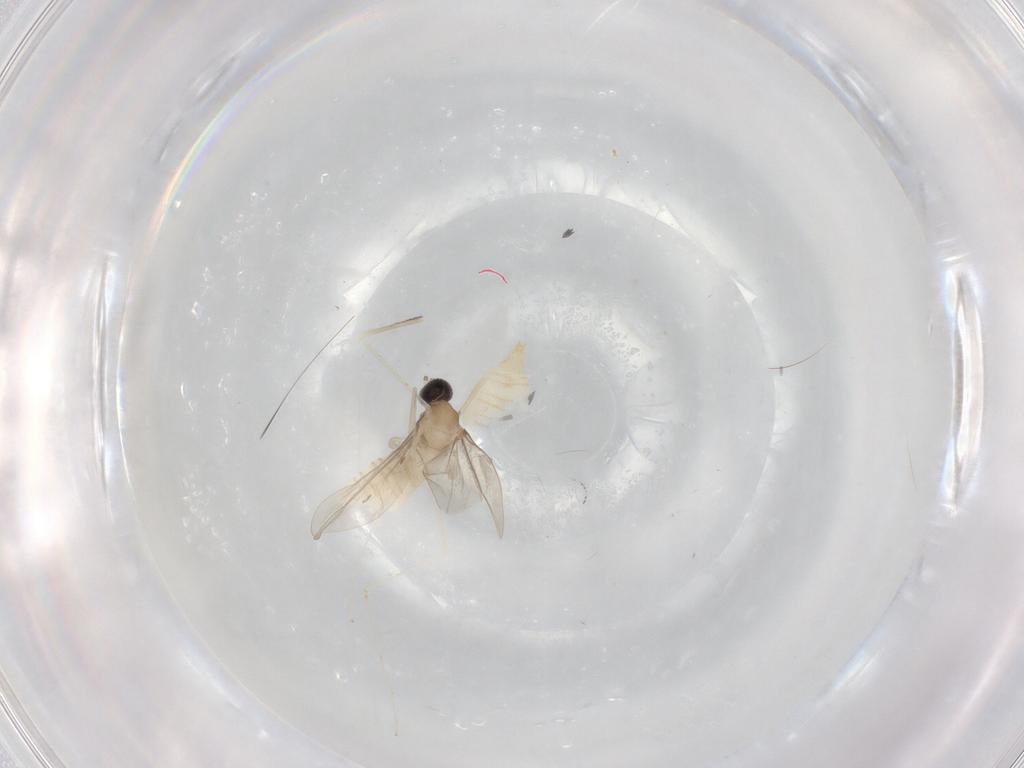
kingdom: Animalia
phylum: Arthropoda
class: Insecta
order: Diptera
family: Cecidomyiidae
